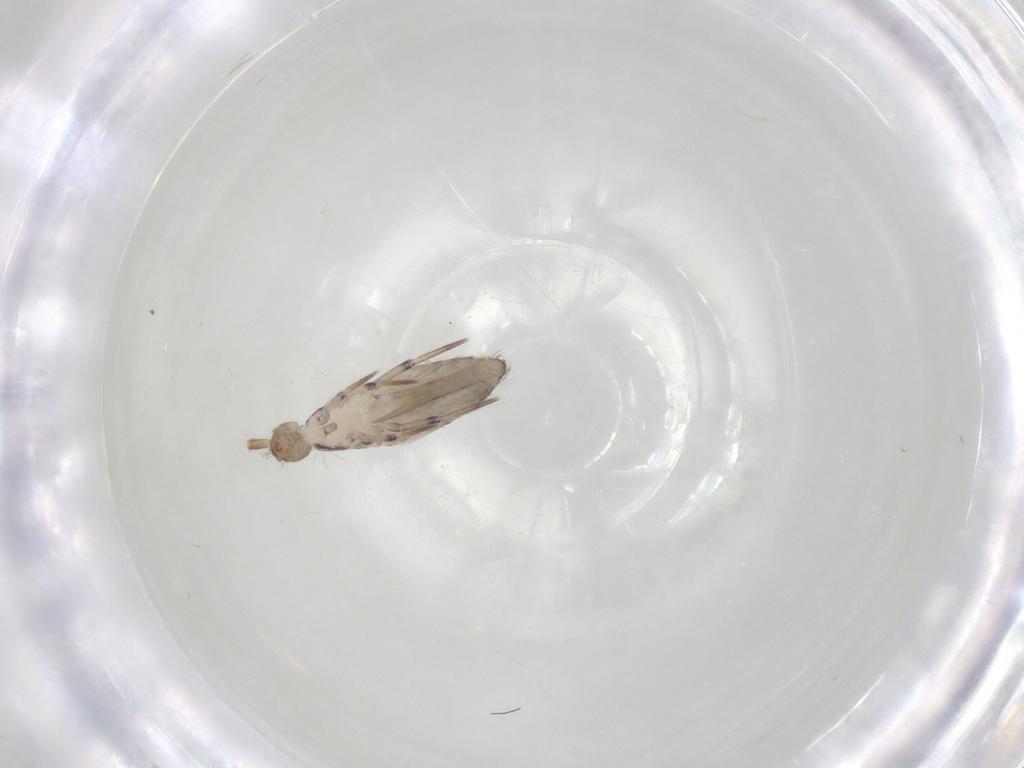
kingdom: Animalia
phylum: Arthropoda
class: Collembola
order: Entomobryomorpha
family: Entomobryidae
